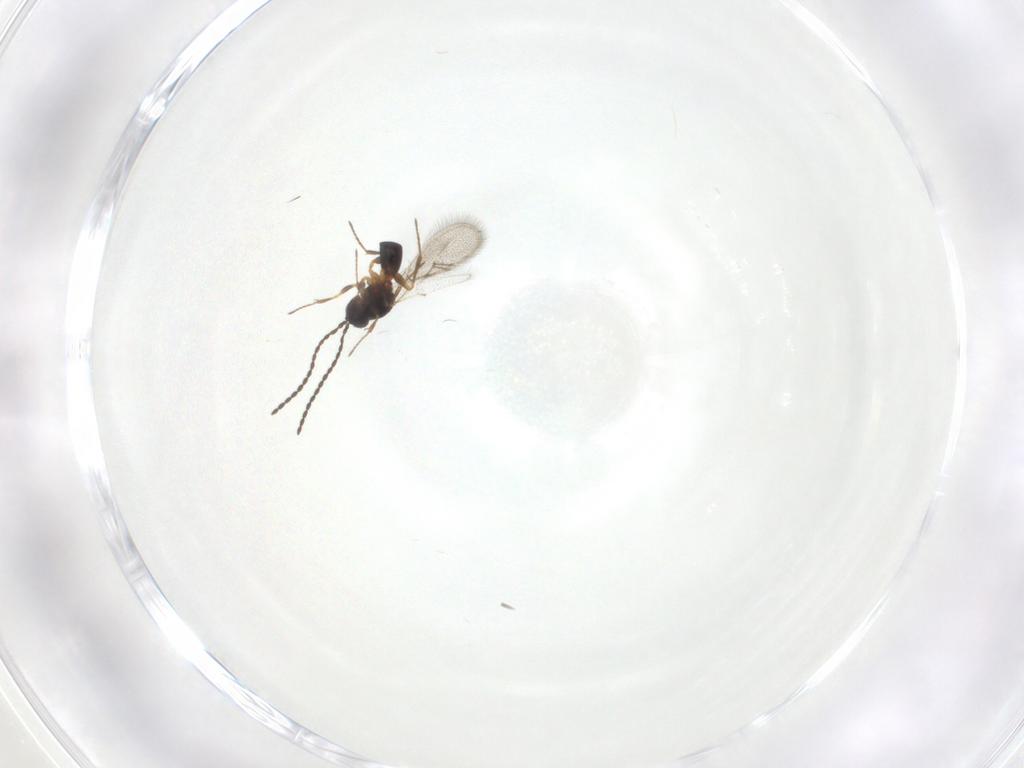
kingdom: Animalia
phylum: Arthropoda
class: Insecta
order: Hymenoptera
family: Figitidae
